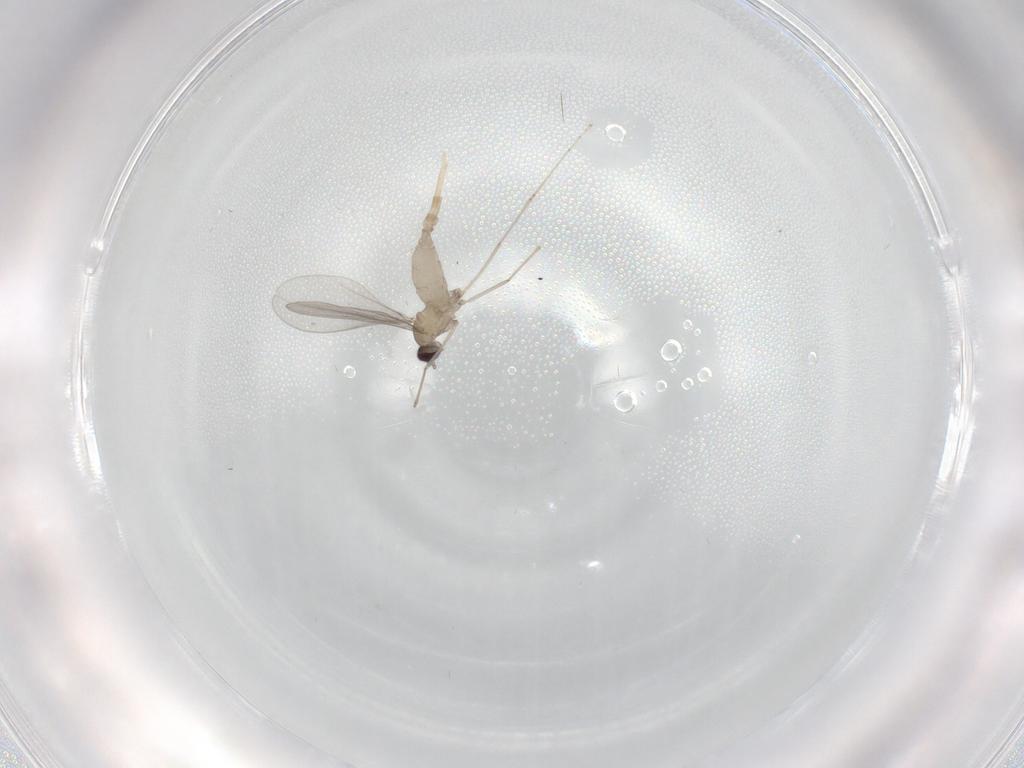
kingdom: Animalia
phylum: Arthropoda
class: Insecta
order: Diptera
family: Cecidomyiidae
